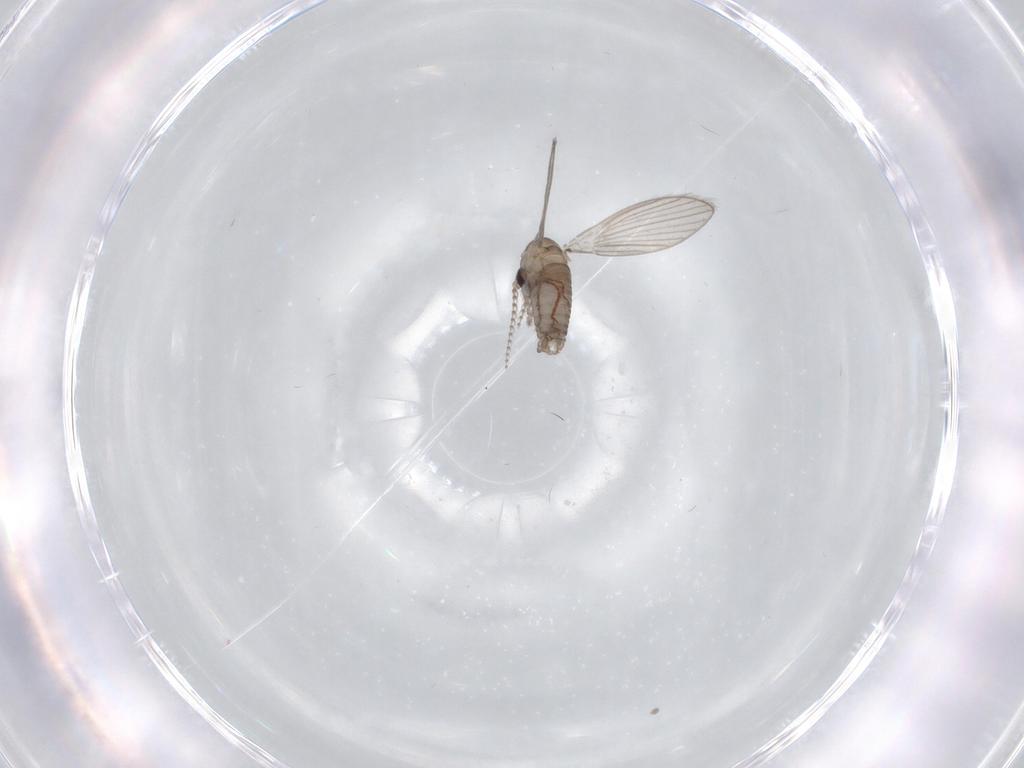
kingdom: Animalia
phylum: Arthropoda
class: Insecta
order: Diptera
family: Psychodidae
